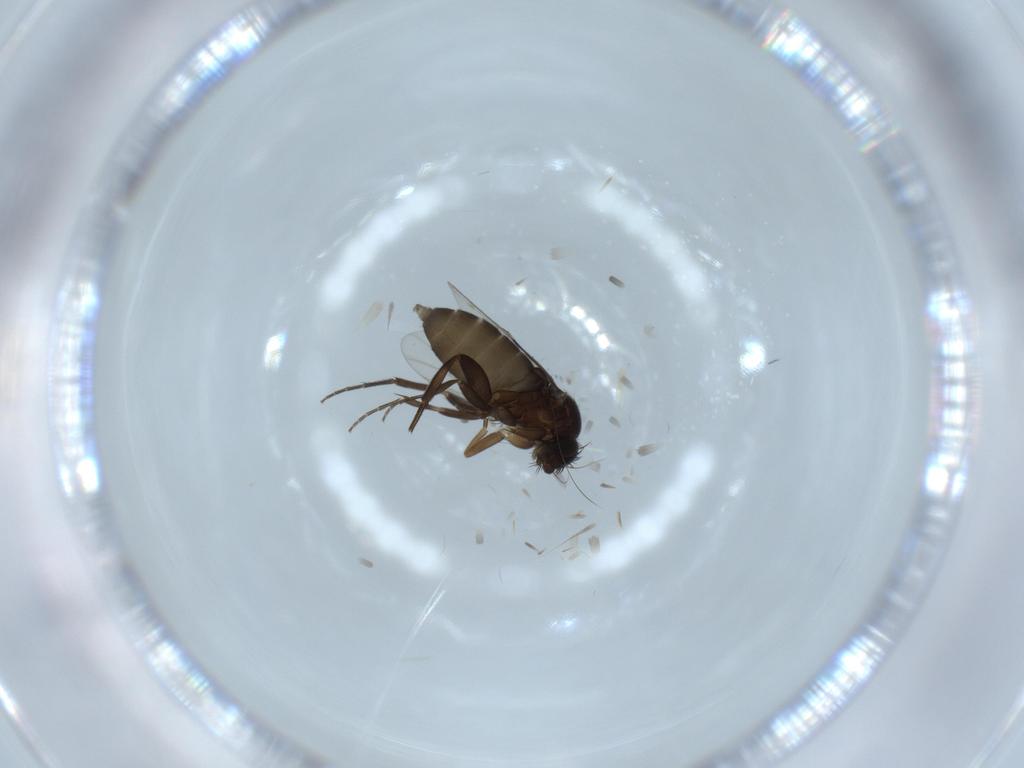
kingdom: Animalia
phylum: Arthropoda
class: Insecta
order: Diptera
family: Phoridae
